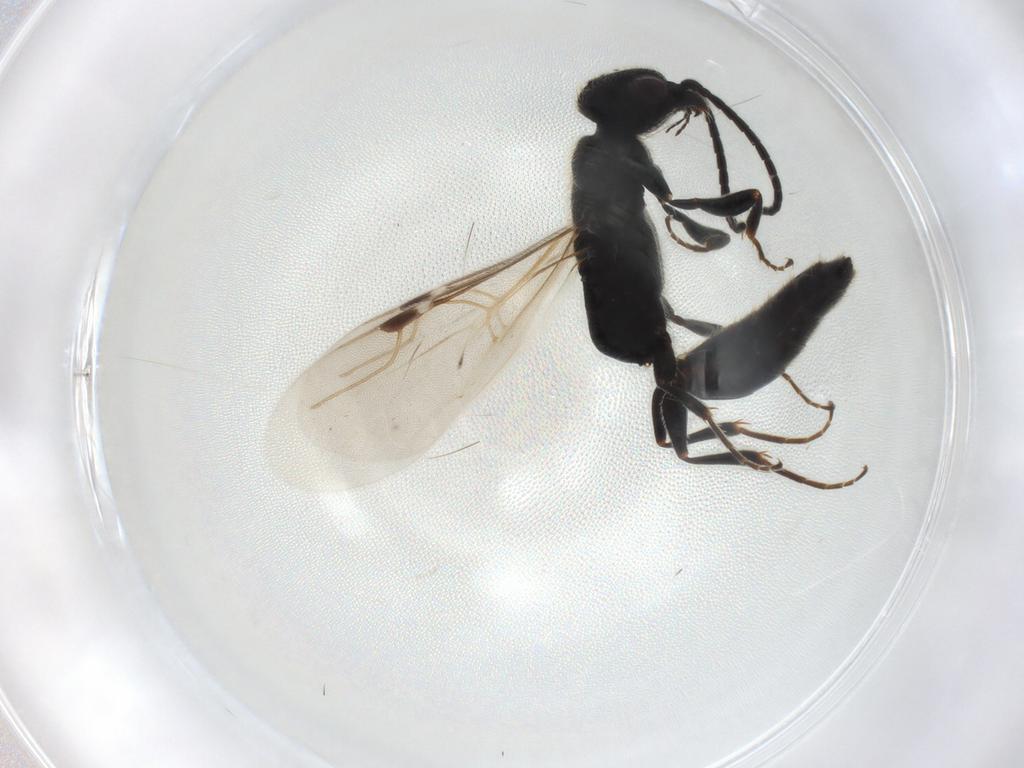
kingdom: Animalia
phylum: Arthropoda
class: Insecta
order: Hymenoptera
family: Bethylidae
